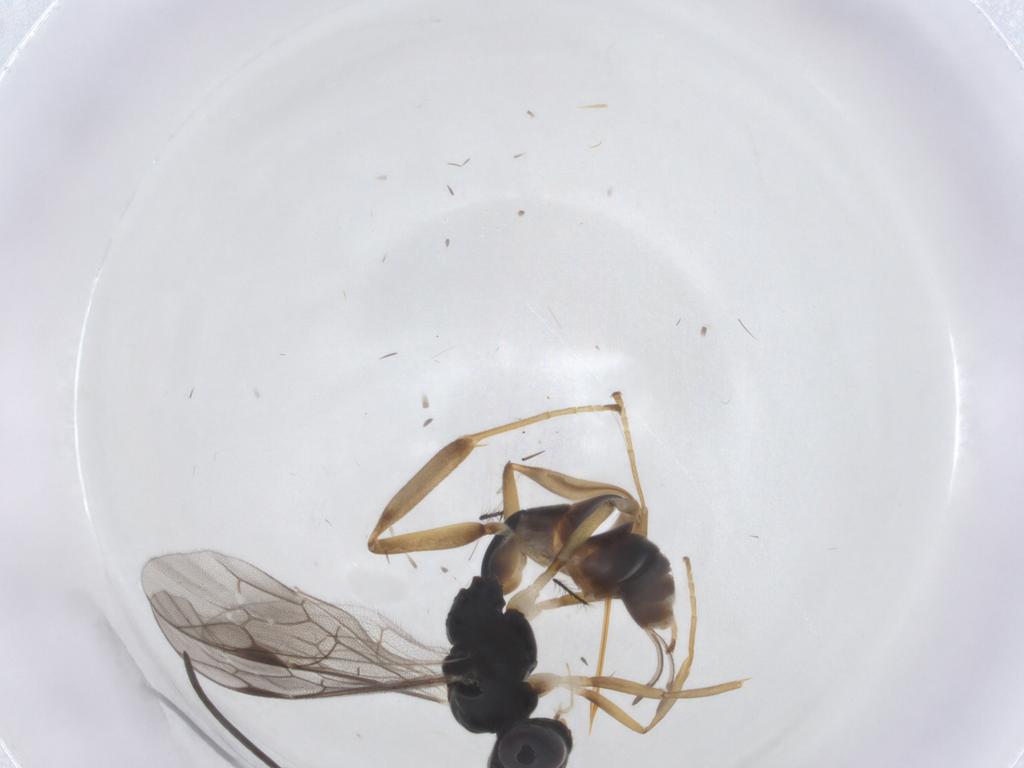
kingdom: Animalia
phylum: Arthropoda
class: Insecta
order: Hymenoptera
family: Ichneumonidae
